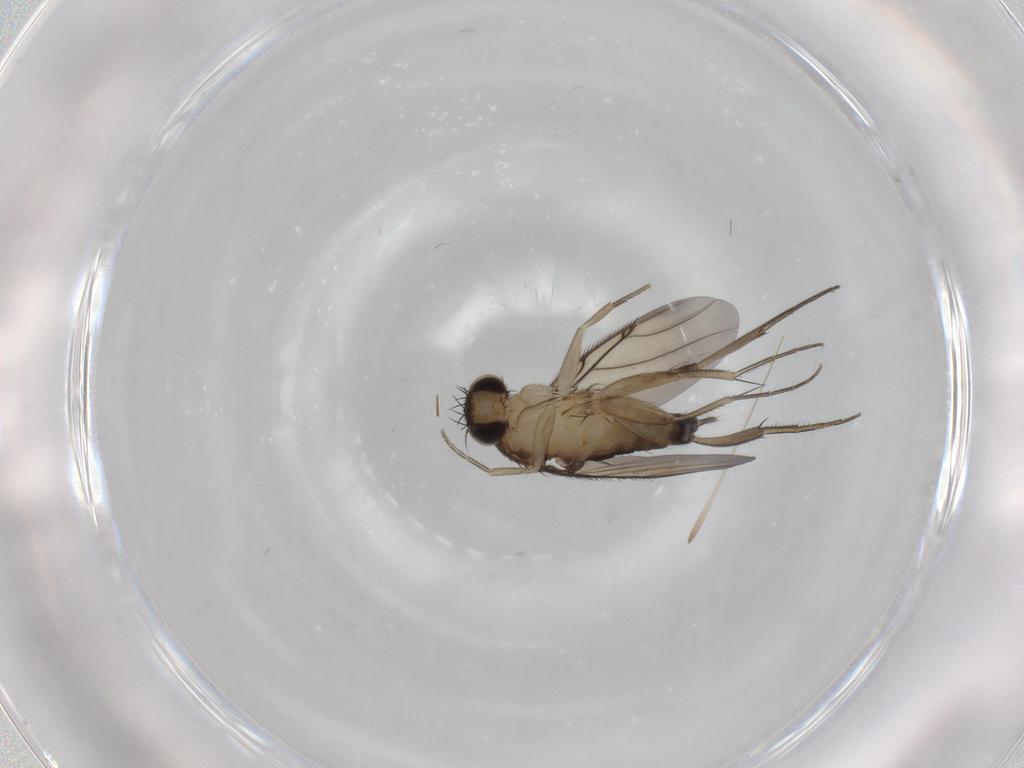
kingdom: Animalia
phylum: Arthropoda
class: Insecta
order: Diptera
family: Phoridae
